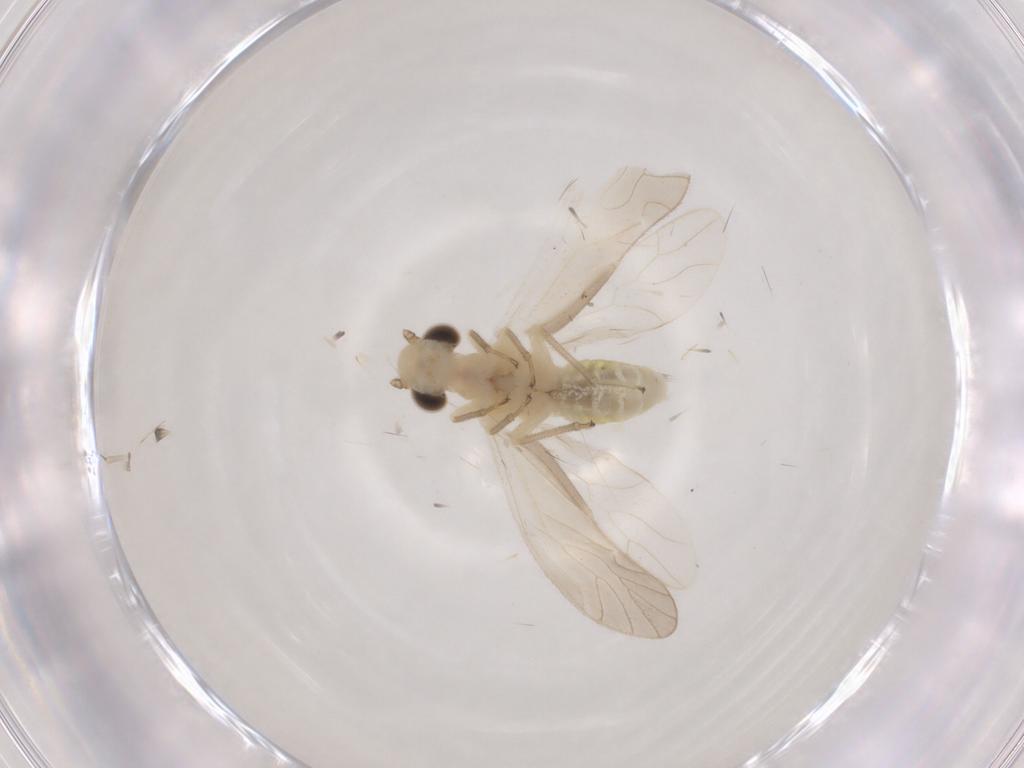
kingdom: Animalia
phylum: Arthropoda
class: Insecta
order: Psocodea
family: Caeciliusidae
